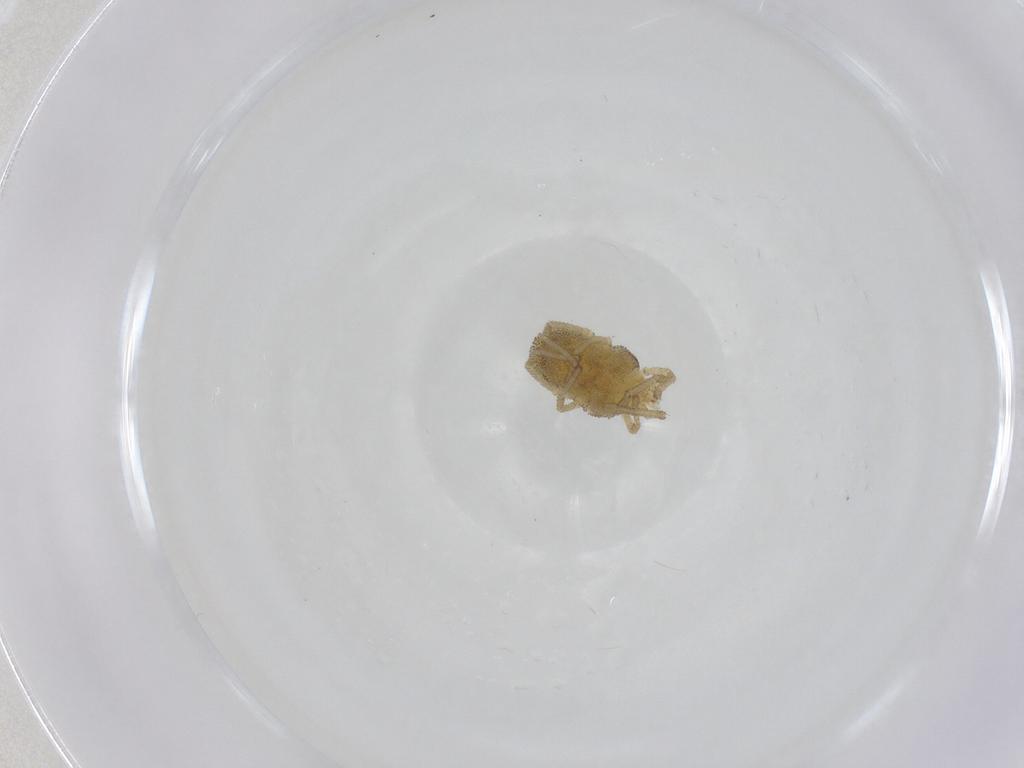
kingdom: Animalia
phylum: Arthropoda
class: Arachnida
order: Trombidiformes
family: Smarididae
